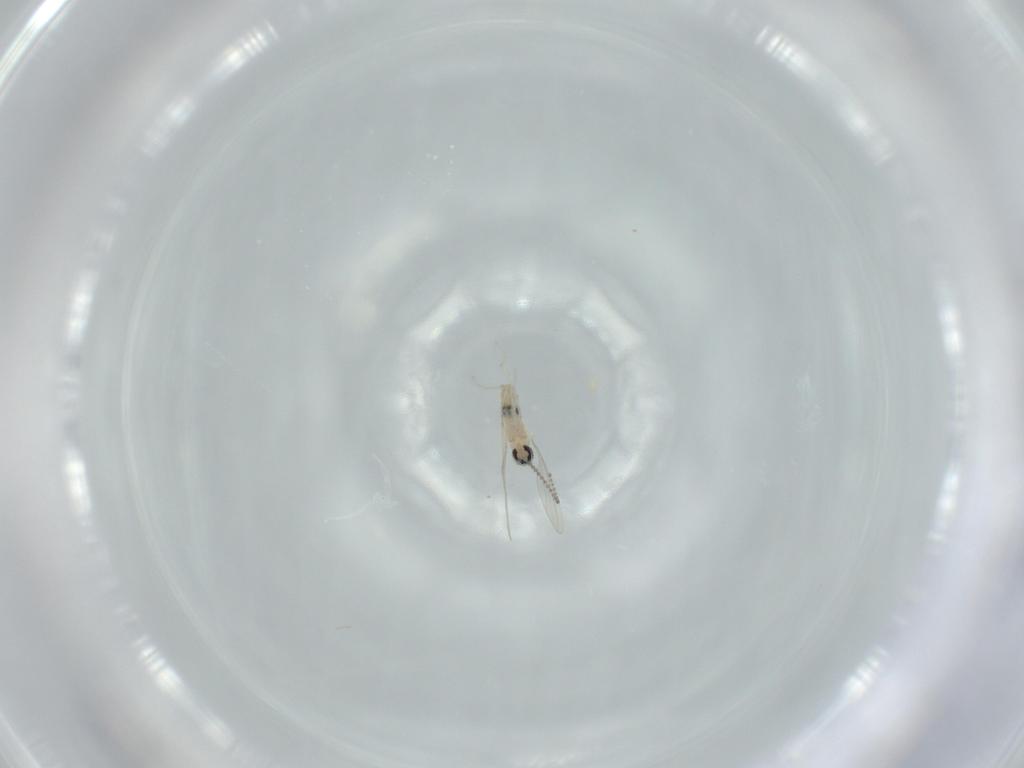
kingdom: Animalia
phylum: Arthropoda
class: Insecta
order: Diptera
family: Cecidomyiidae
